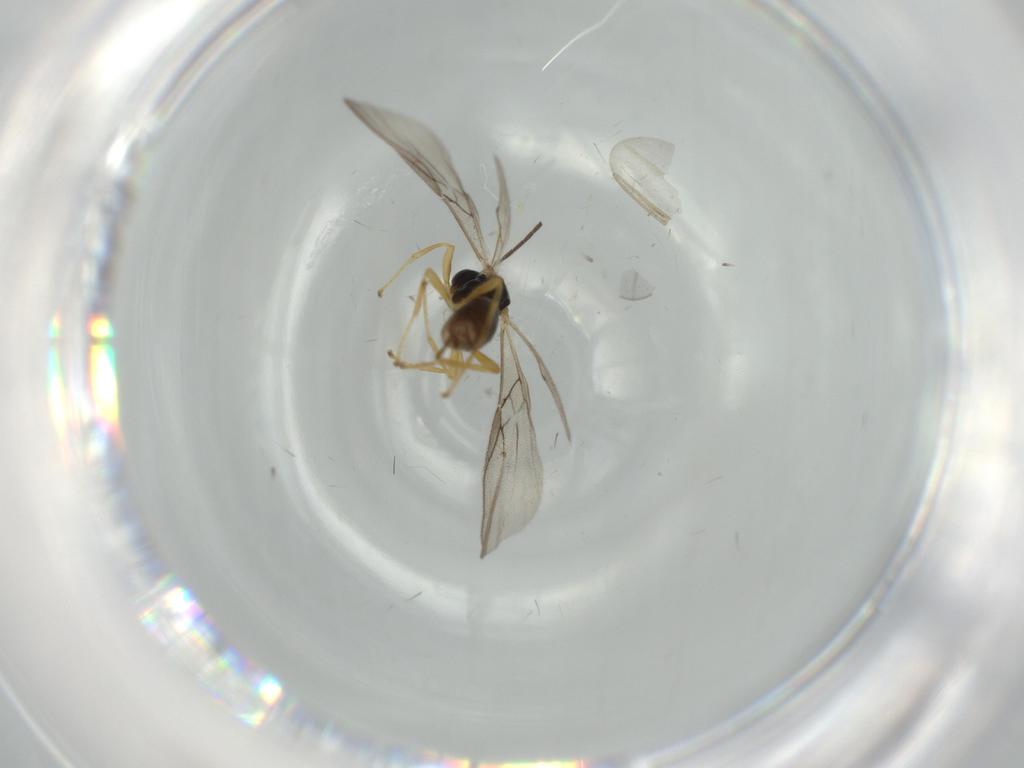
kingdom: Animalia
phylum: Arthropoda
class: Insecta
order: Hymenoptera
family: Braconidae
